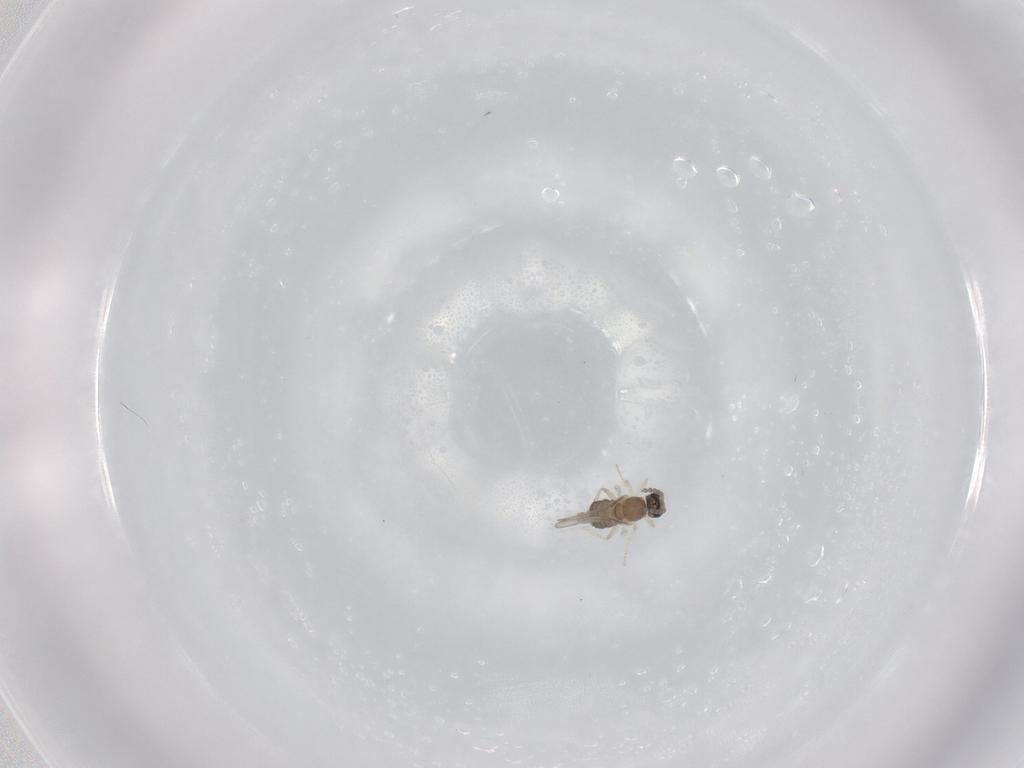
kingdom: Animalia
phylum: Arthropoda
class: Insecta
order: Diptera
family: Cecidomyiidae
